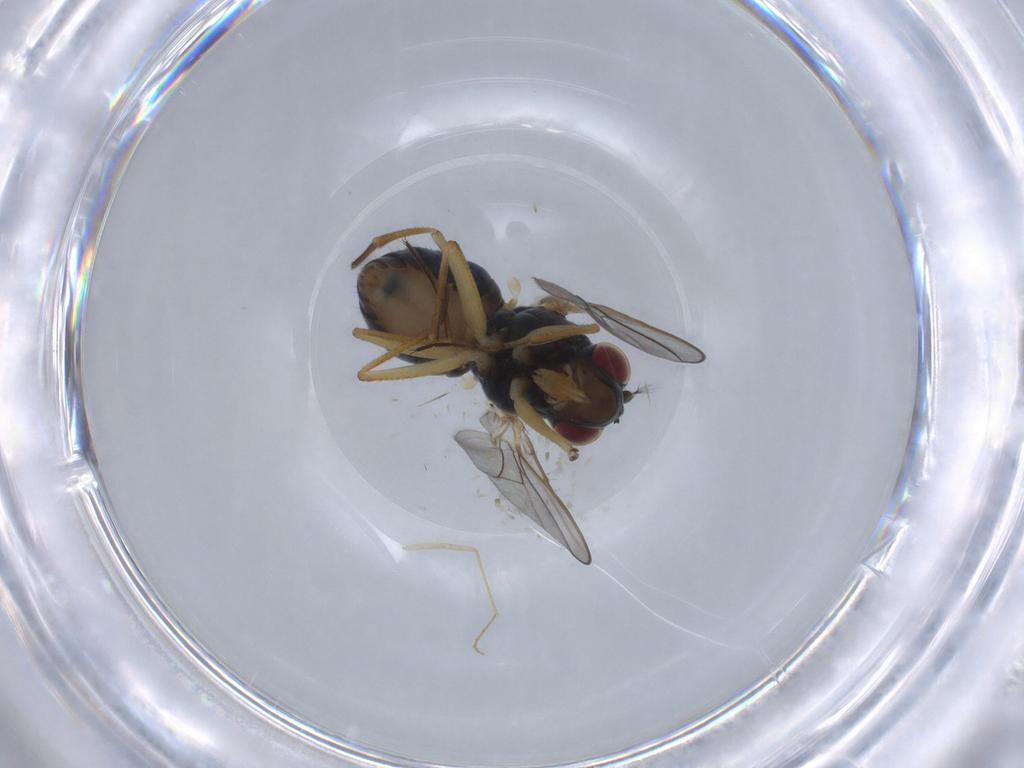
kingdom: Animalia
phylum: Arthropoda
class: Insecta
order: Diptera
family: Ephydridae
